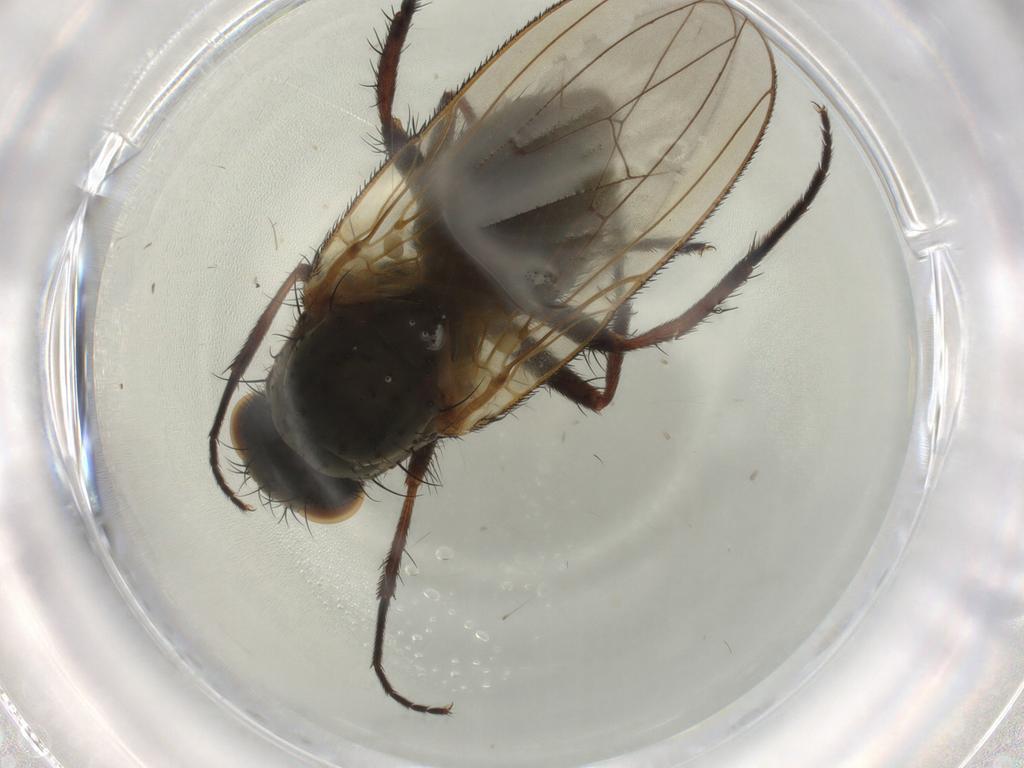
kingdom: Animalia
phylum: Arthropoda
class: Insecta
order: Diptera
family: Anthomyiidae
